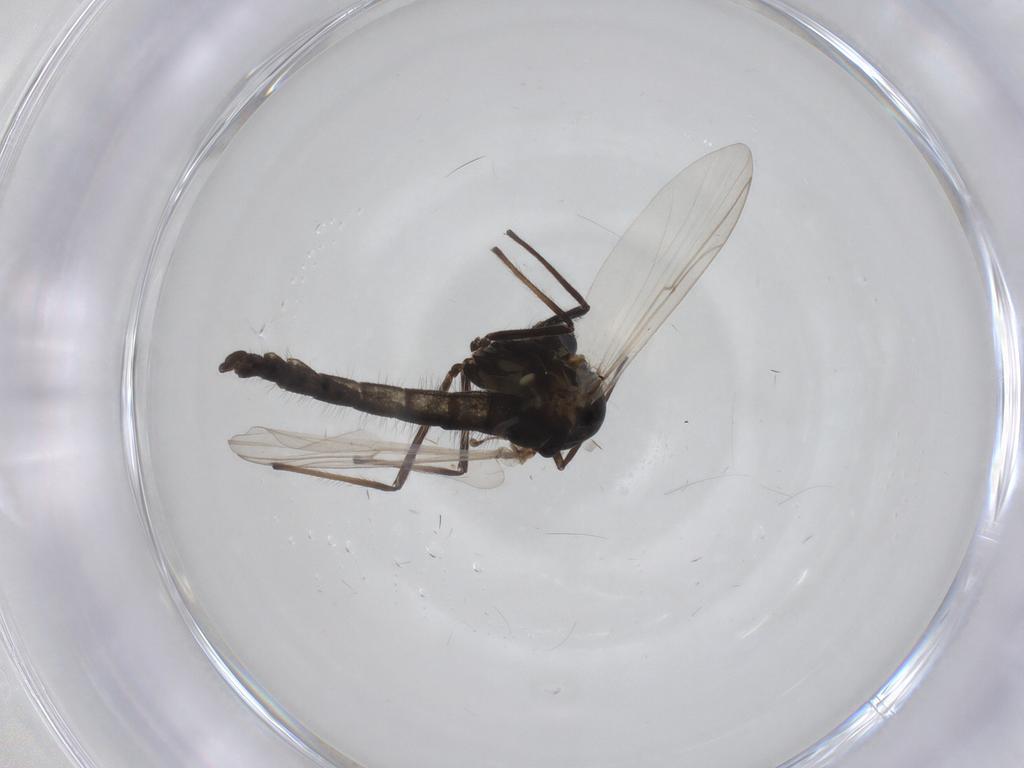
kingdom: Animalia
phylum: Arthropoda
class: Insecta
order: Diptera
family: Chironomidae
